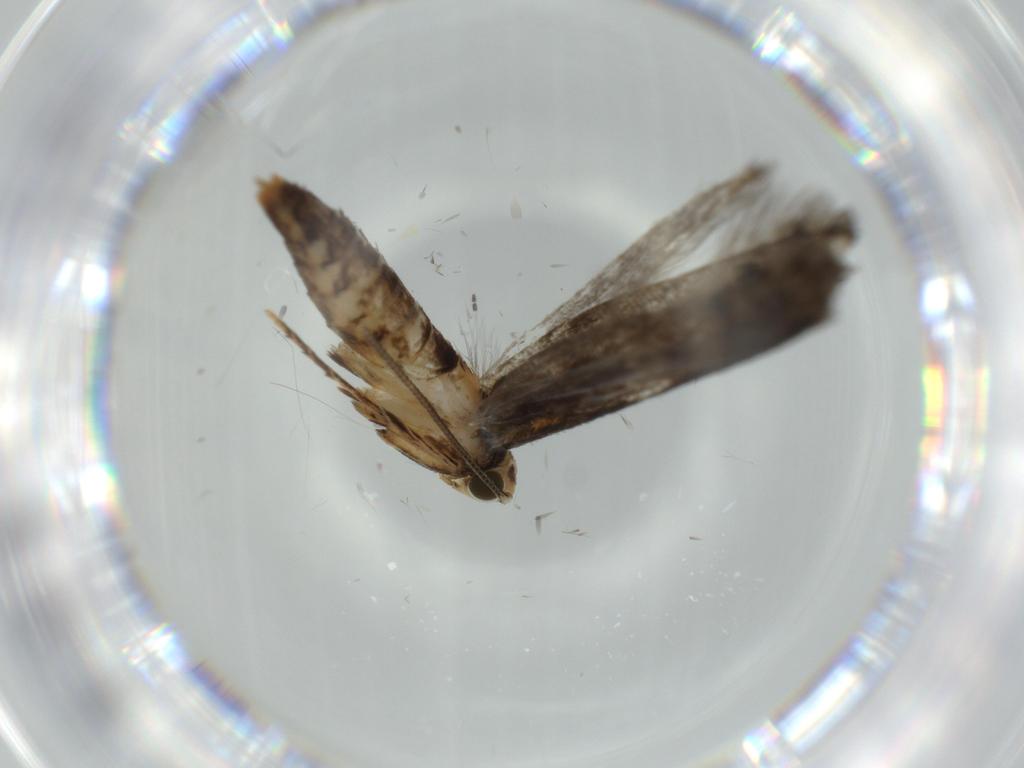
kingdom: Animalia
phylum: Arthropoda
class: Insecta
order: Lepidoptera
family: Tineidae
